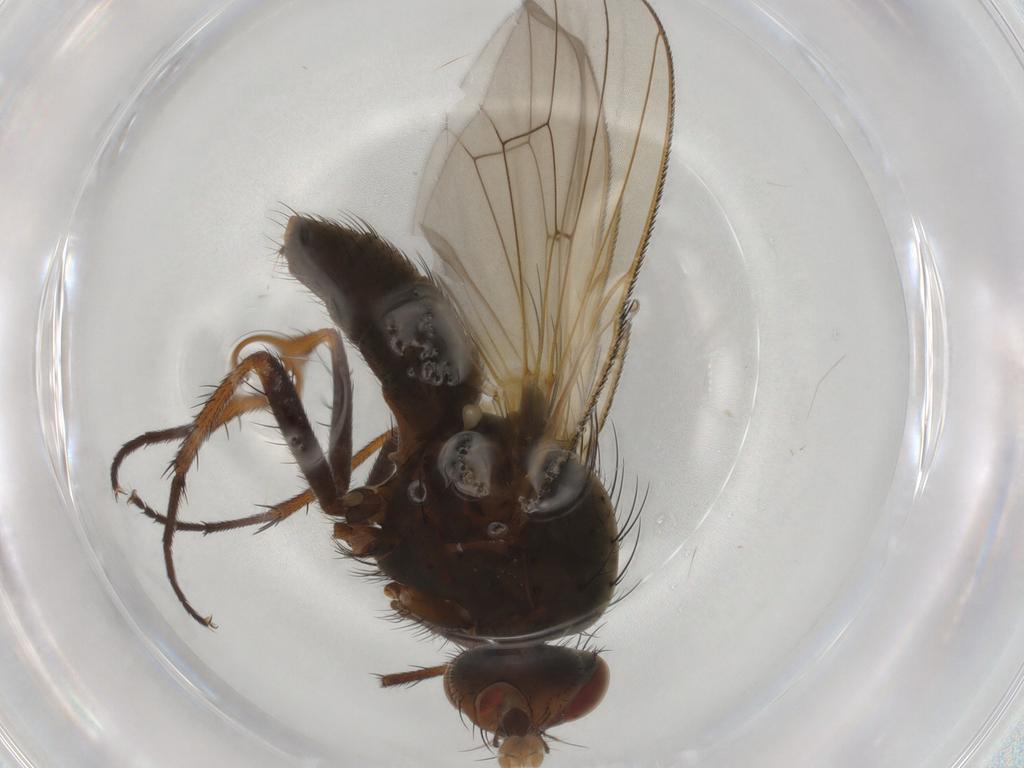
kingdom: Animalia
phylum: Arthropoda
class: Insecta
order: Diptera
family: Anthomyiidae
